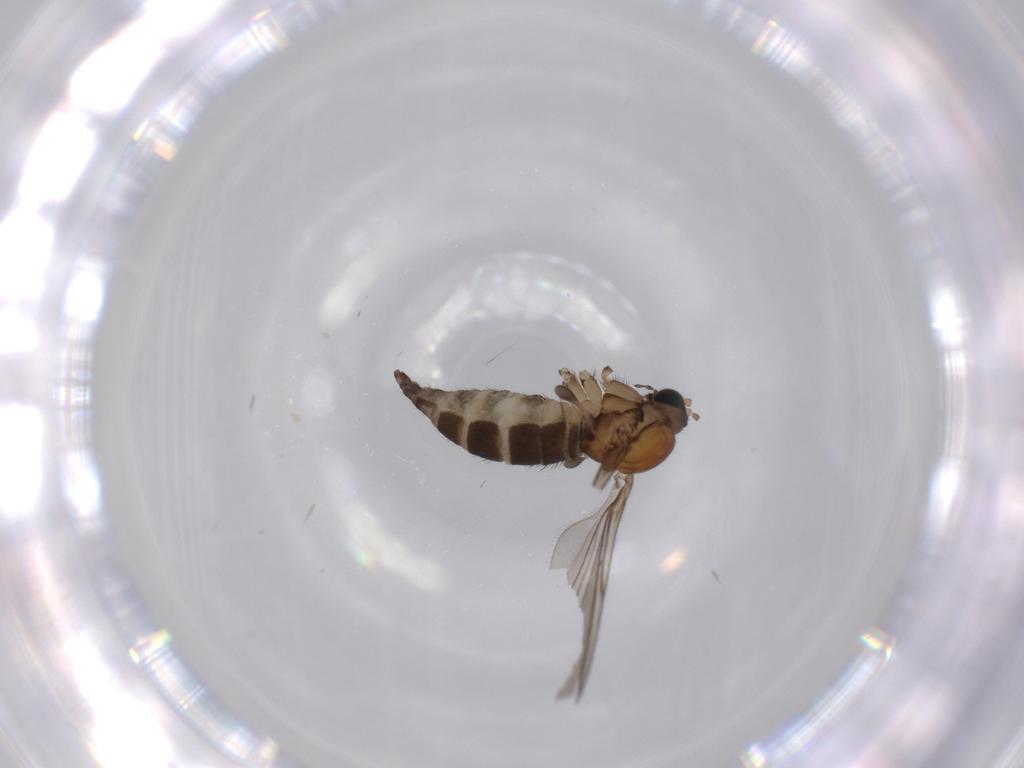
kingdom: Animalia
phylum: Arthropoda
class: Insecta
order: Diptera
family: Sciaridae
